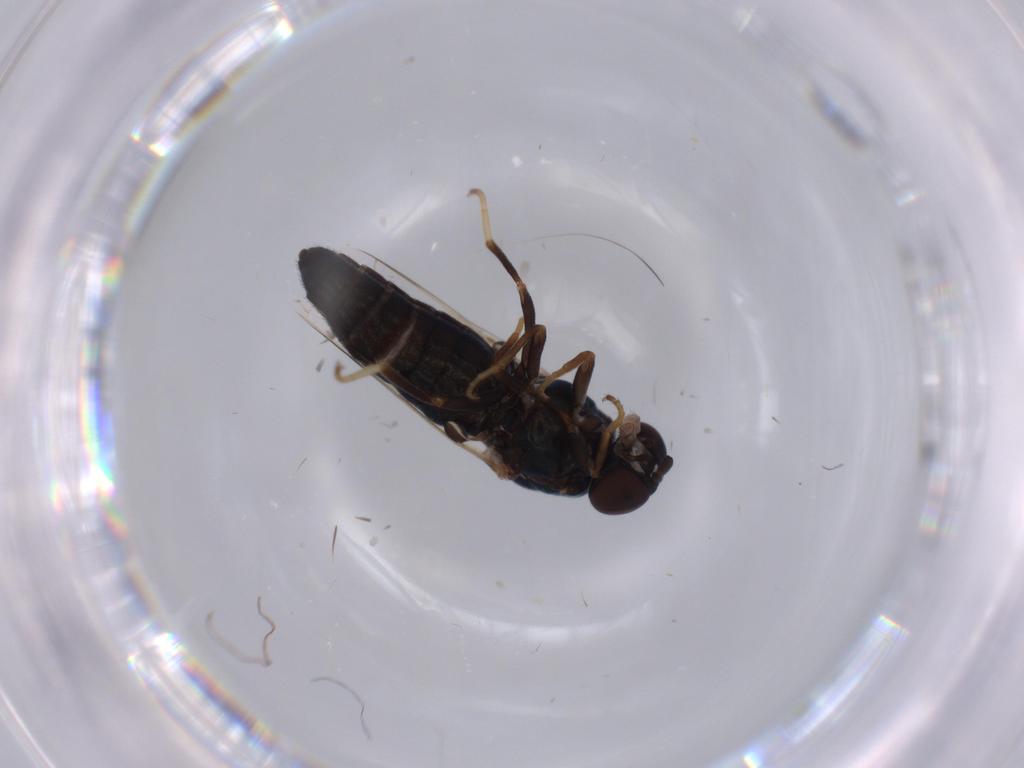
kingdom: Animalia
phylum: Arthropoda
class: Insecta
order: Diptera
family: Scenopinidae
